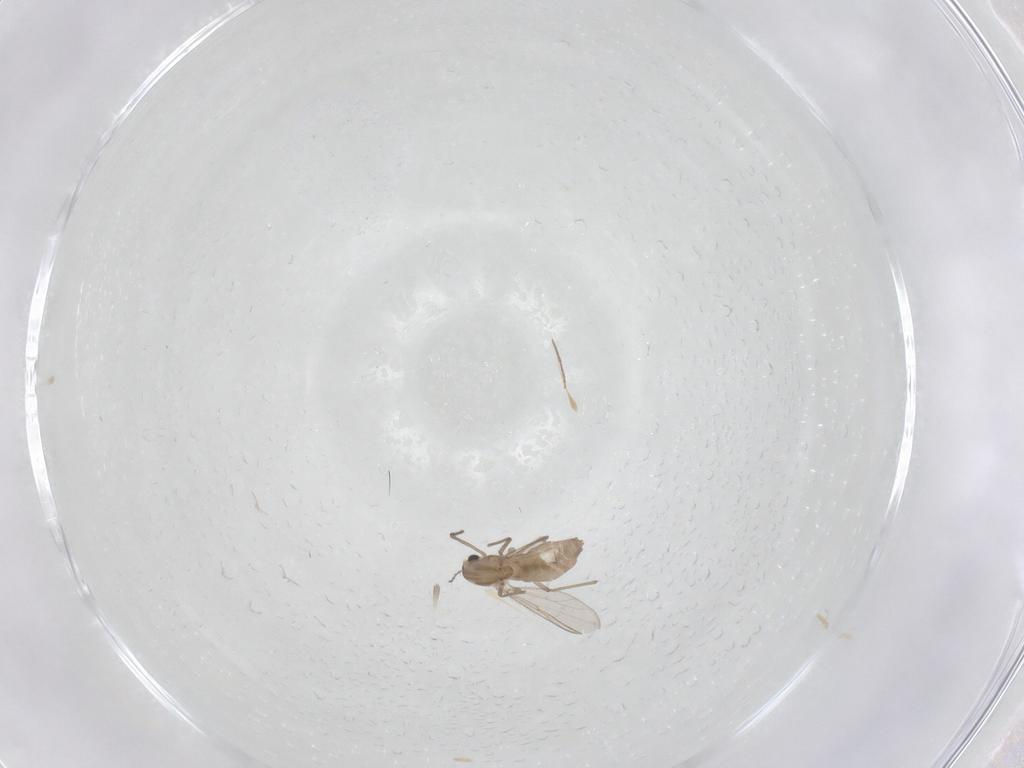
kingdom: Animalia
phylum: Arthropoda
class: Insecta
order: Diptera
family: Chironomidae
